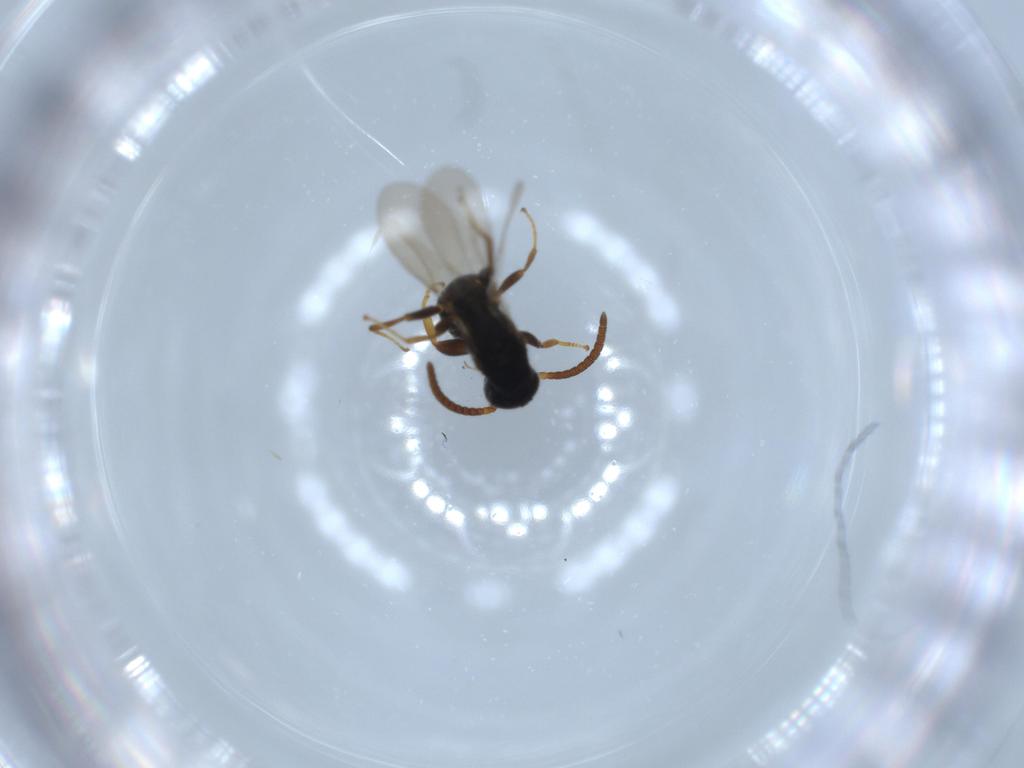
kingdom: Animalia
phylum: Arthropoda
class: Insecta
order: Hymenoptera
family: Bethylidae
